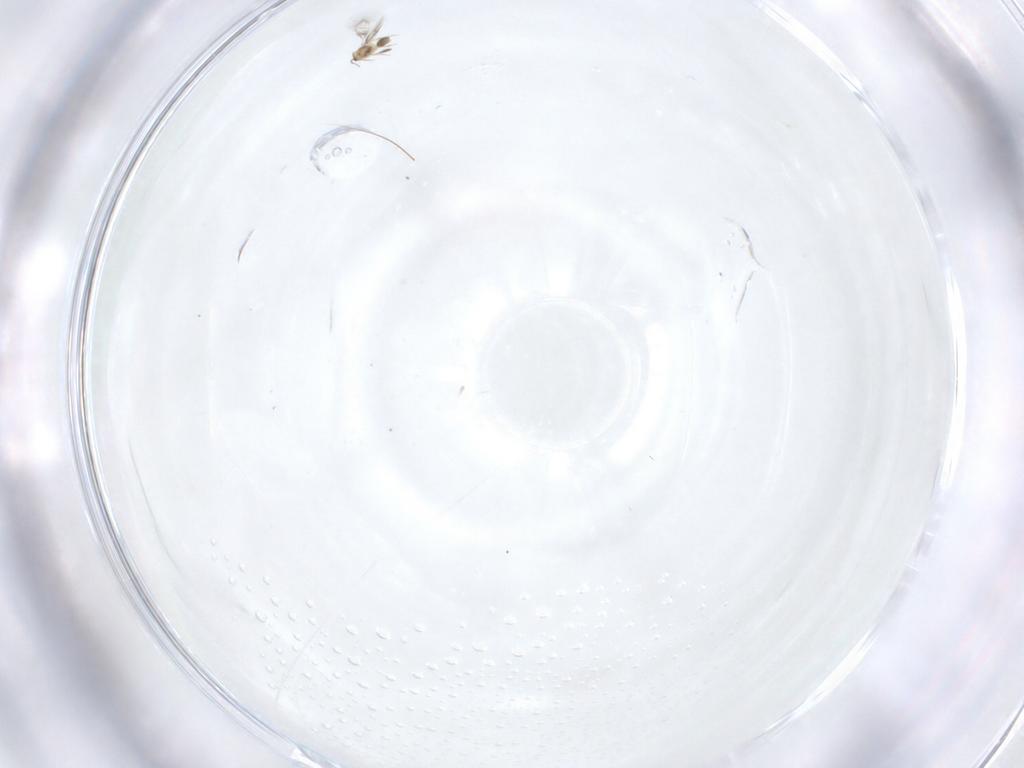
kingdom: Animalia
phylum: Arthropoda
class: Insecta
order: Hymenoptera
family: Mymarommatidae
